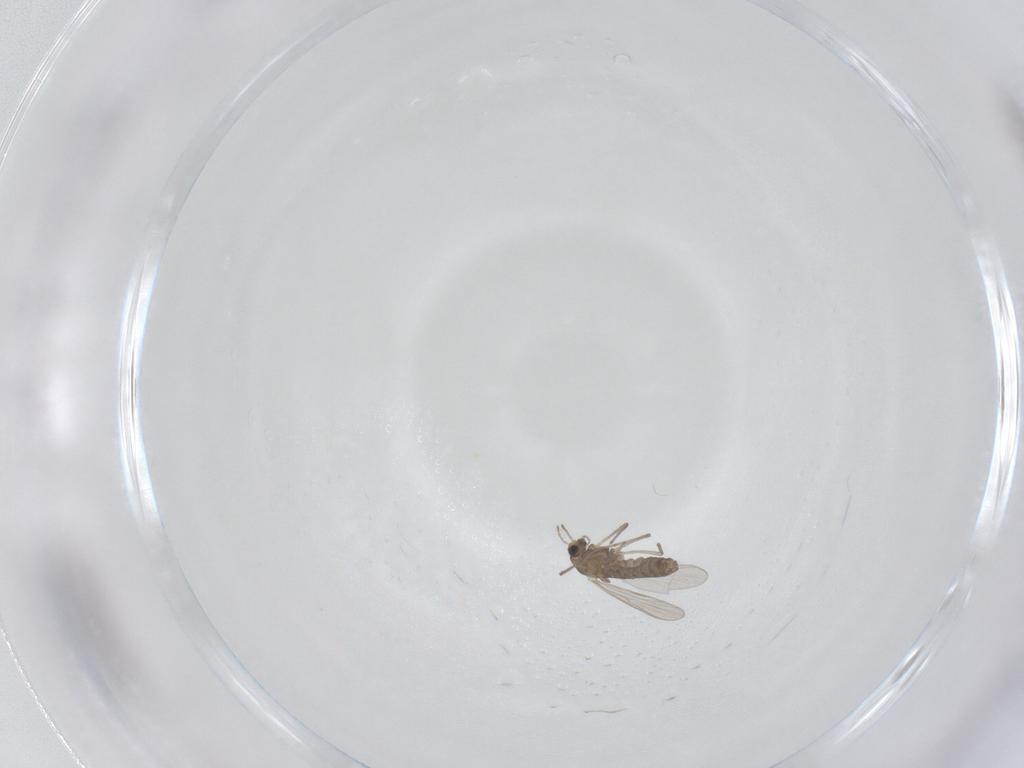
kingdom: Animalia
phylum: Arthropoda
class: Insecta
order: Diptera
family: Chironomidae
